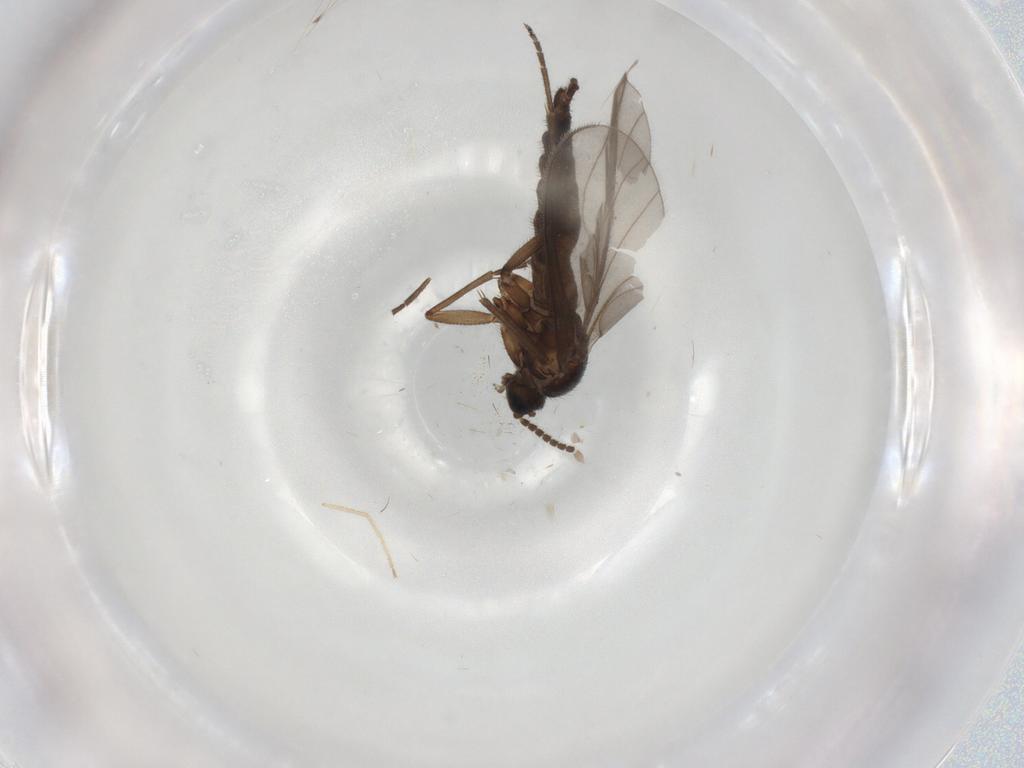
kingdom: Animalia
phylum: Arthropoda
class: Insecta
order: Diptera
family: Sciaridae
